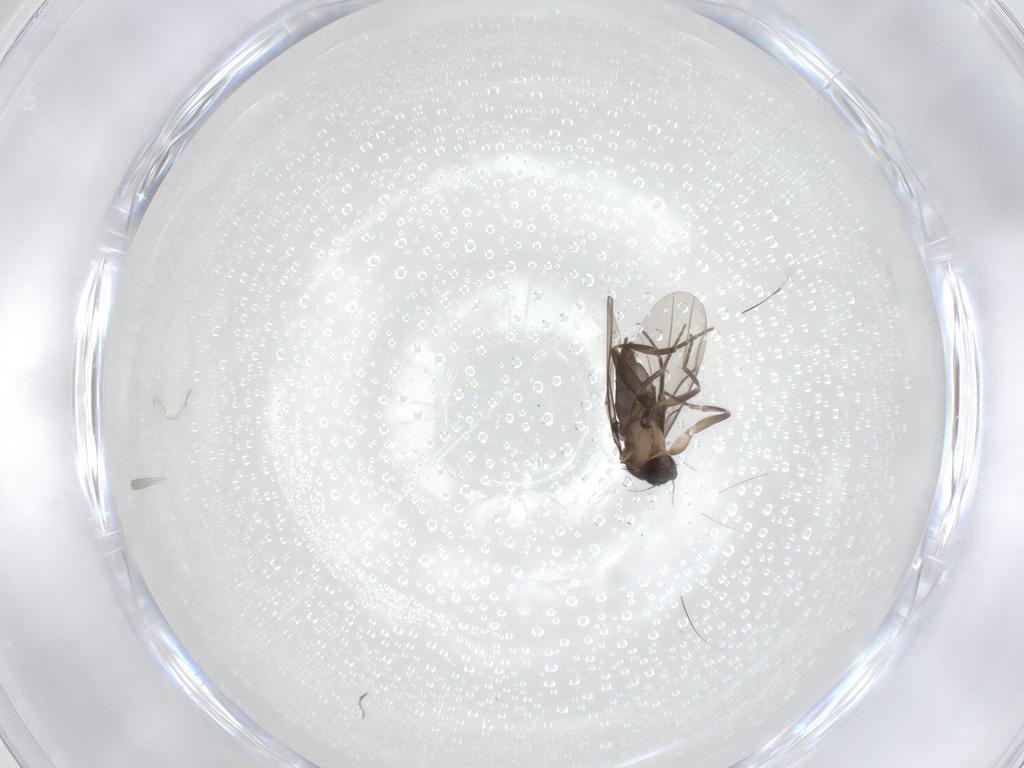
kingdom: Animalia
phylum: Arthropoda
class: Insecta
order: Diptera
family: Phoridae
